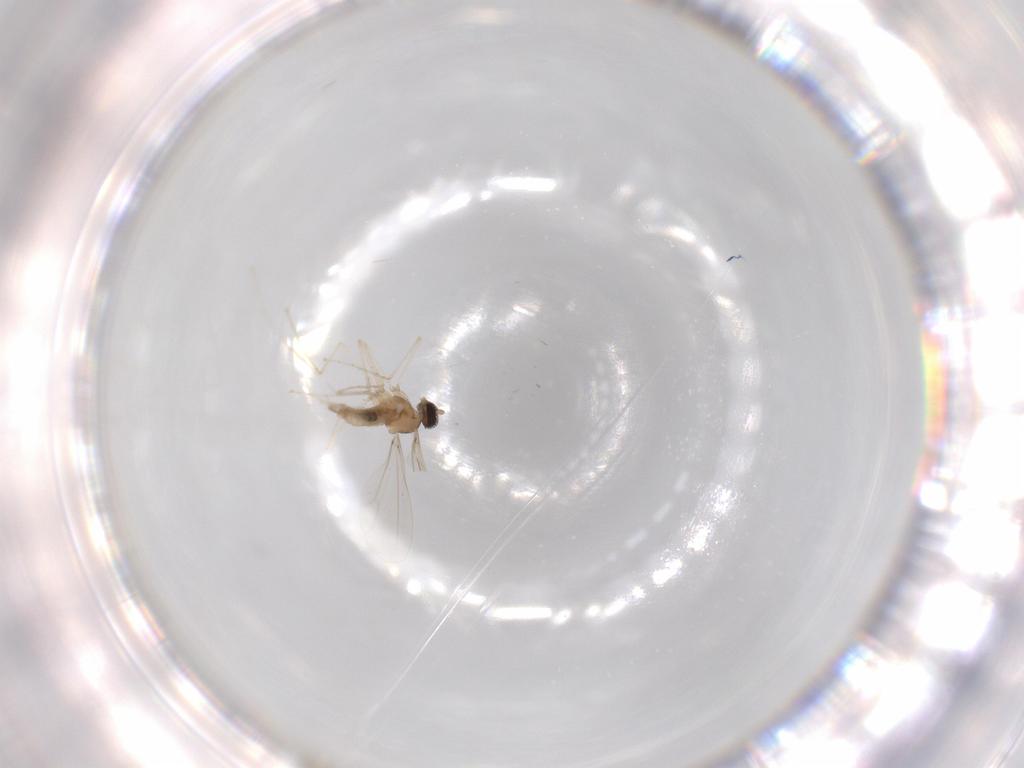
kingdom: Animalia
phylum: Arthropoda
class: Insecta
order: Diptera
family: Cecidomyiidae
